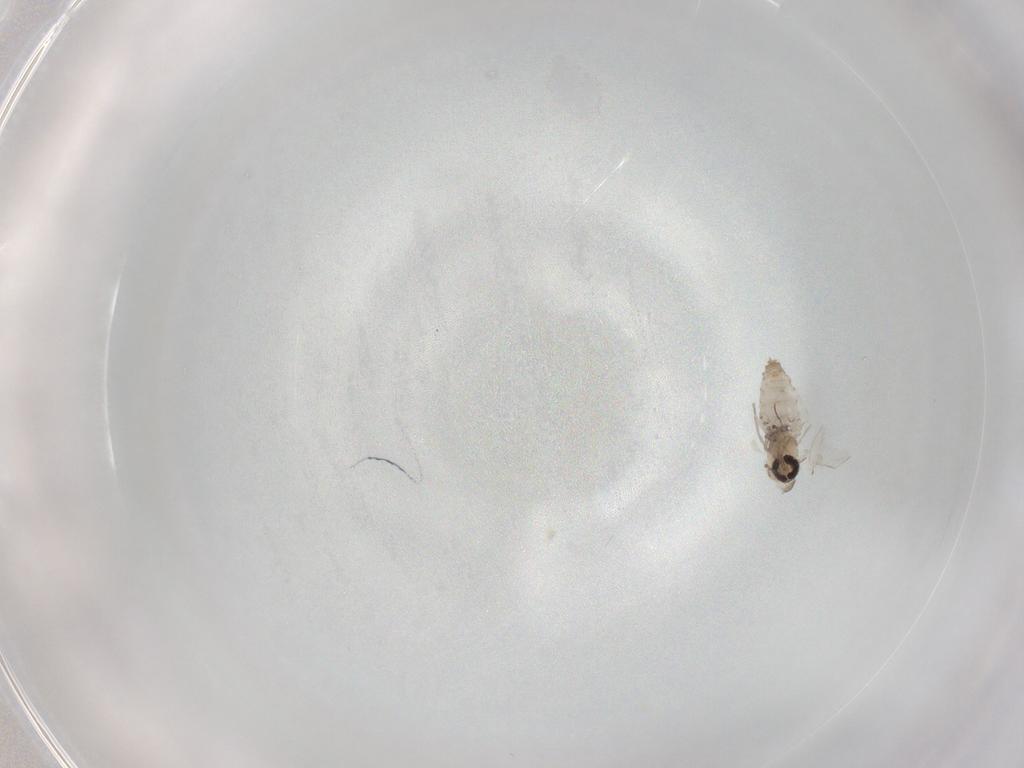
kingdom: Animalia
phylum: Arthropoda
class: Insecta
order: Diptera
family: Psychodidae
